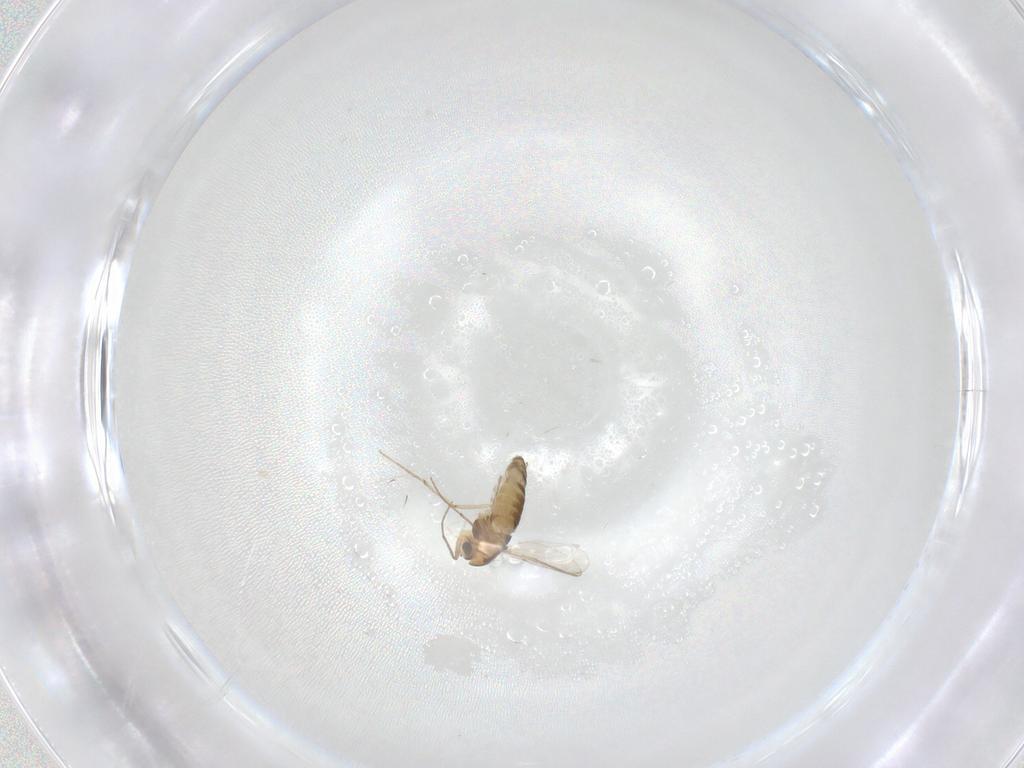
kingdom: Animalia
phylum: Arthropoda
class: Insecta
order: Diptera
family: Chironomidae
